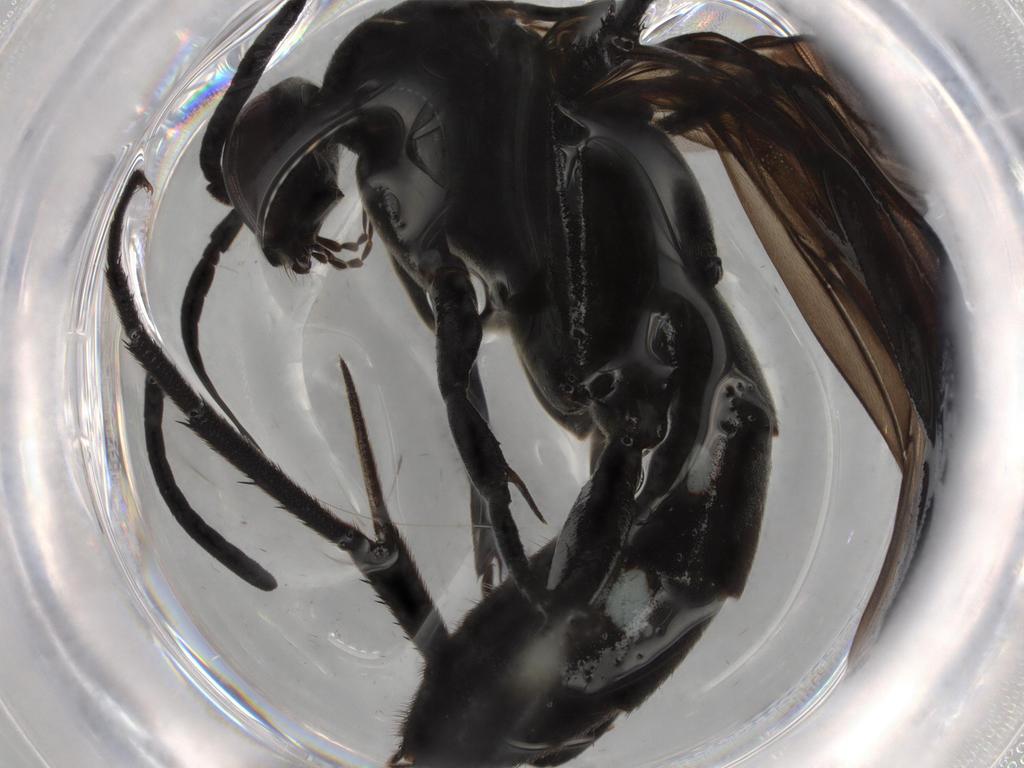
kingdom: Animalia
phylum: Arthropoda
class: Insecta
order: Hymenoptera
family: Pompilidae
